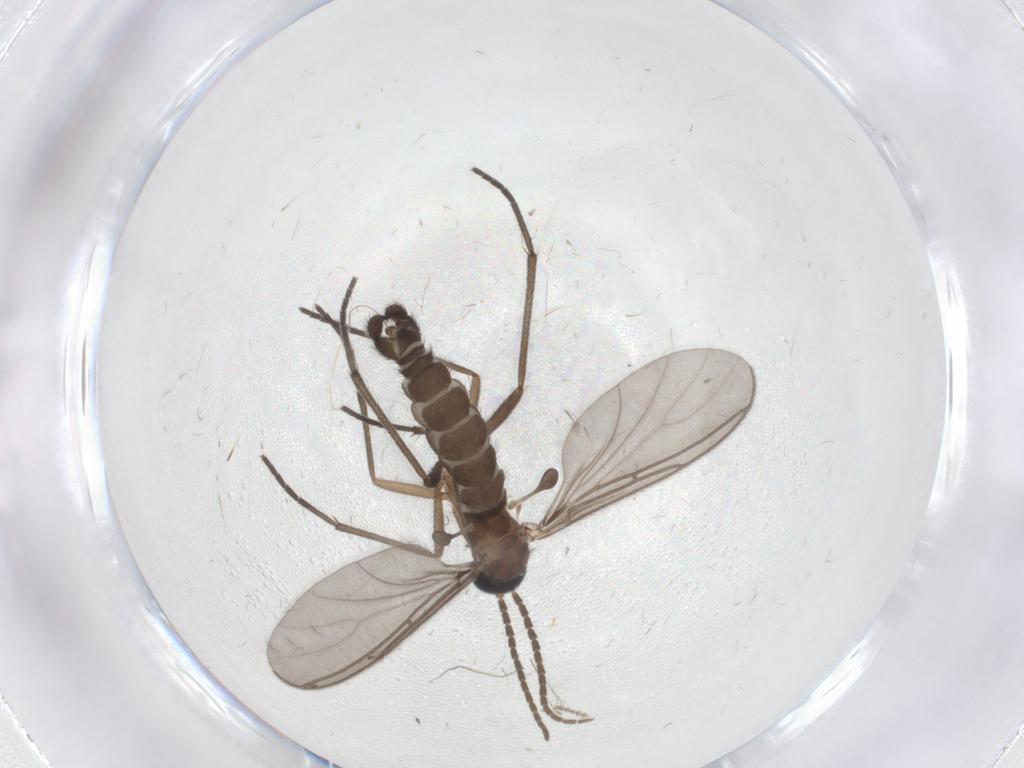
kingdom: Animalia
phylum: Arthropoda
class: Insecta
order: Diptera
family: Cecidomyiidae
